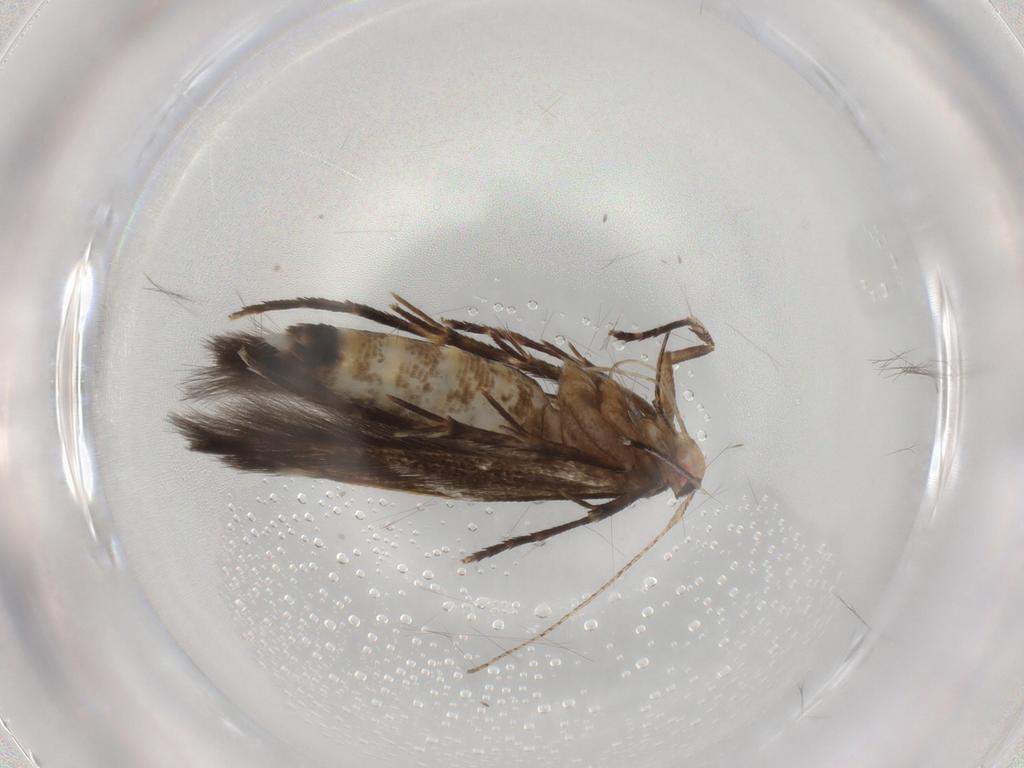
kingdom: Animalia
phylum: Arthropoda
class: Insecta
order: Lepidoptera
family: Cosmopterigidae
